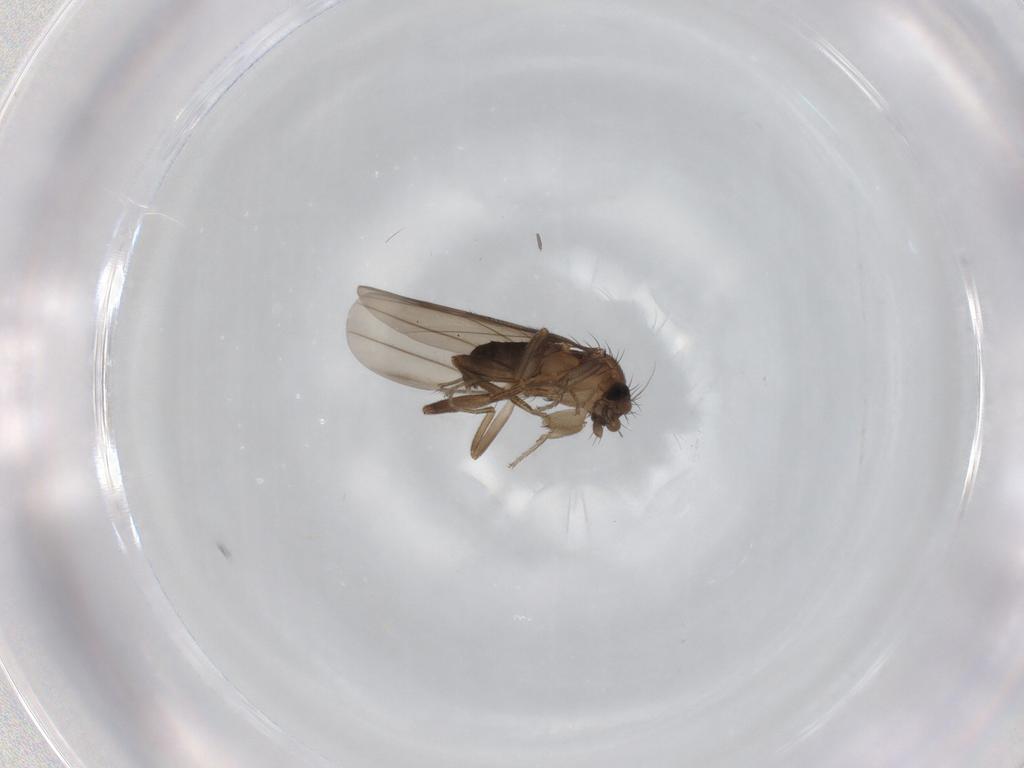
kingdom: Animalia
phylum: Arthropoda
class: Insecta
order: Diptera
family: Phoridae
